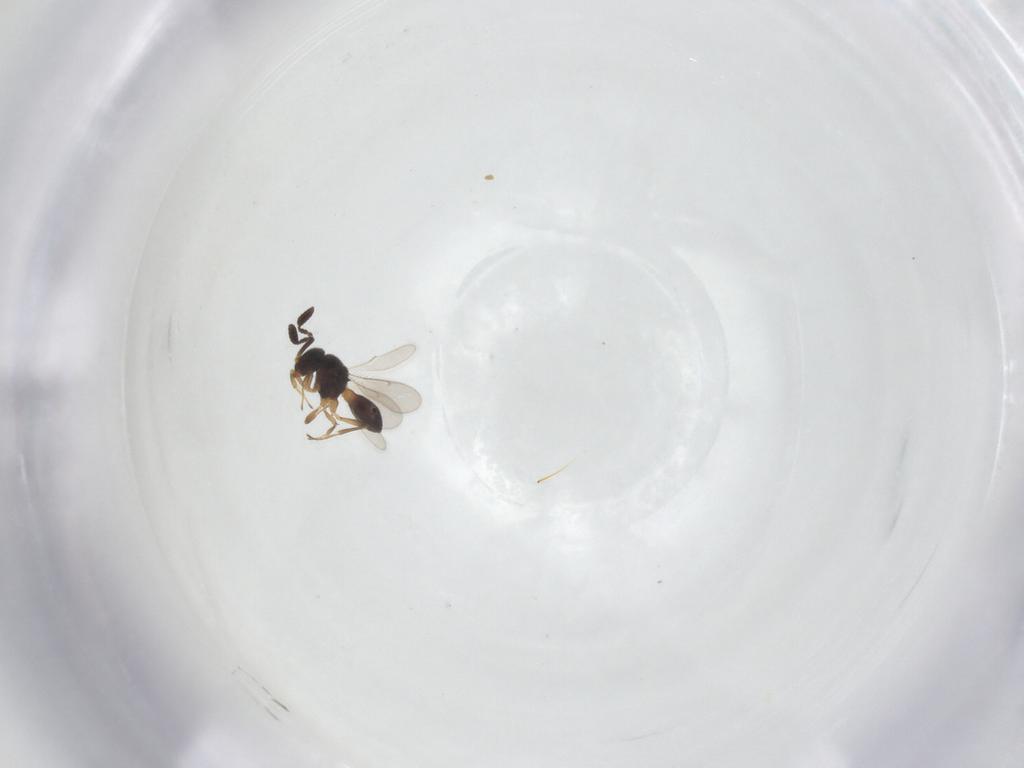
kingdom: Animalia
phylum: Arthropoda
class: Insecta
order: Hymenoptera
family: Scelionidae
